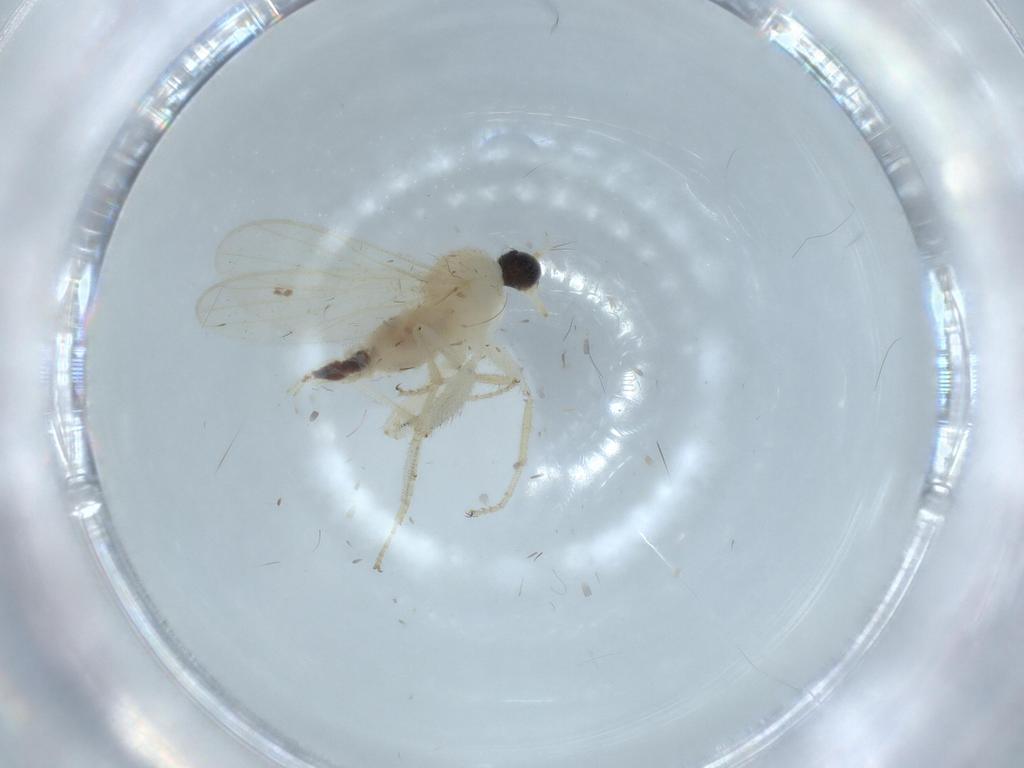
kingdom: Animalia
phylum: Arthropoda
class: Insecta
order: Diptera
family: Hybotidae
